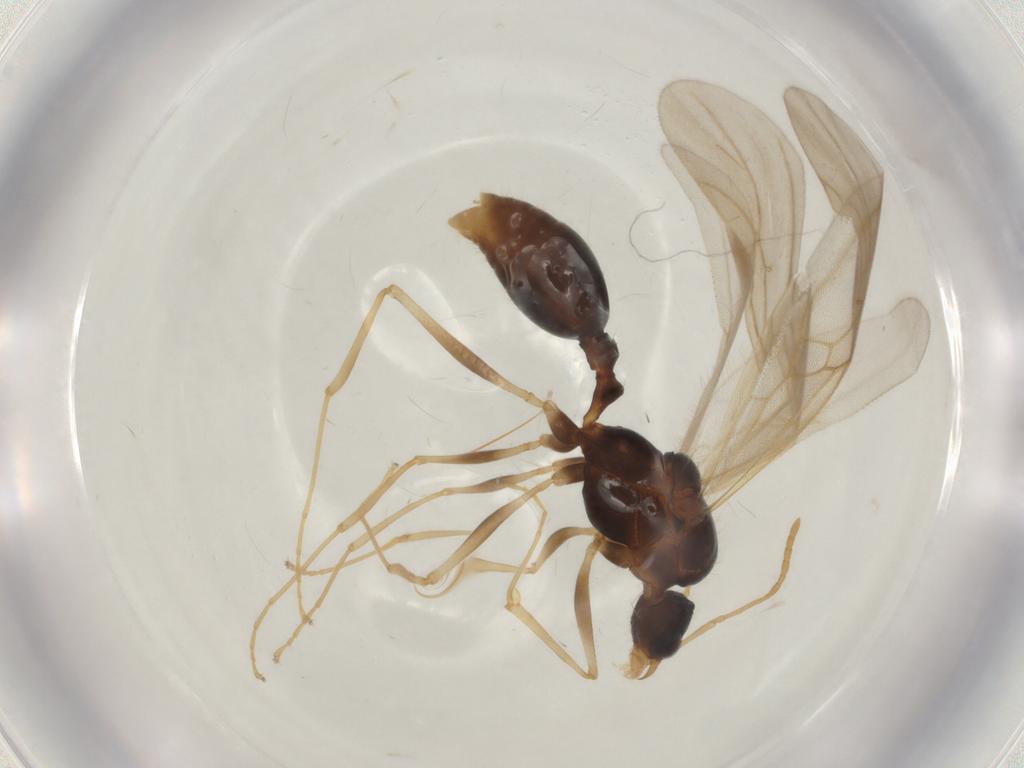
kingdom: Animalia
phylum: Arthropoda
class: Insecta
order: Hymenoptera
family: Formicidae
